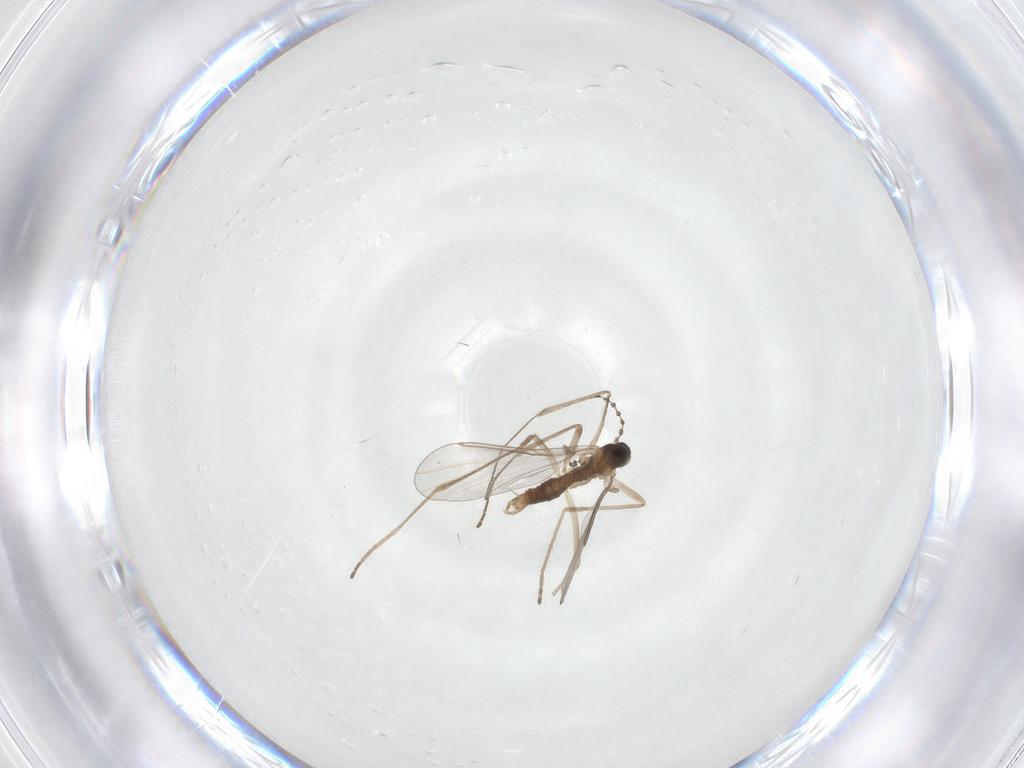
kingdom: Animalia
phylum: Arthropoda
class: Insecta
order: Diptera
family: Cecidomyiidae
